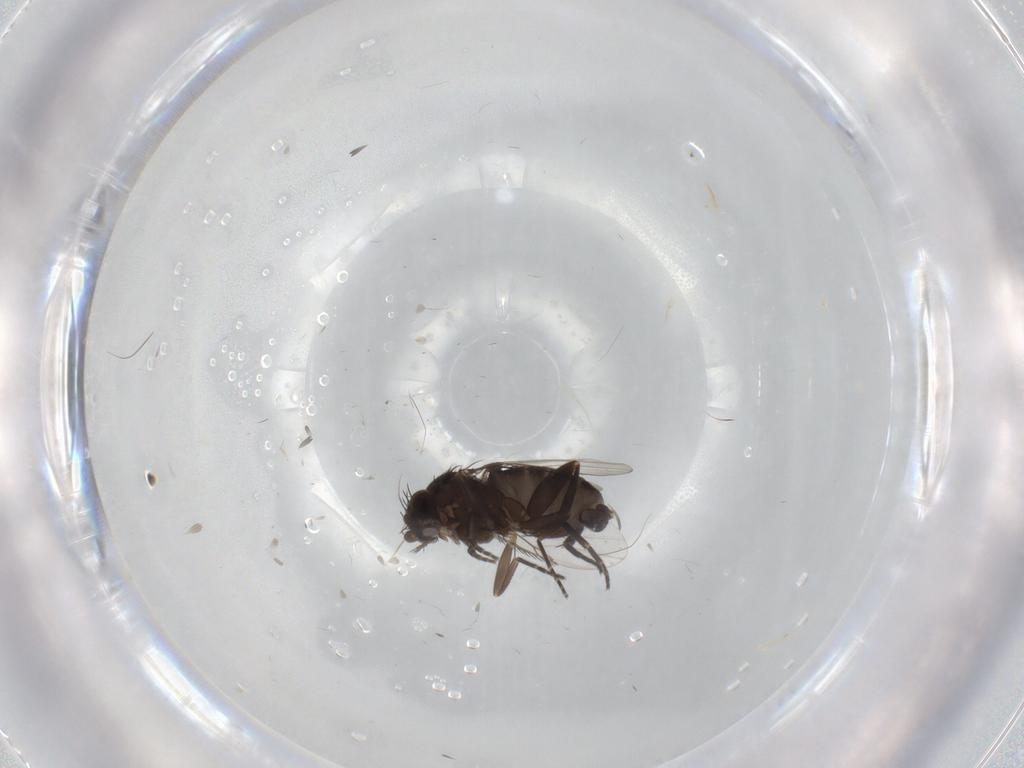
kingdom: Animalia
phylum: Arthropoda
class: Insecta
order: Diptera
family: Phoridae
